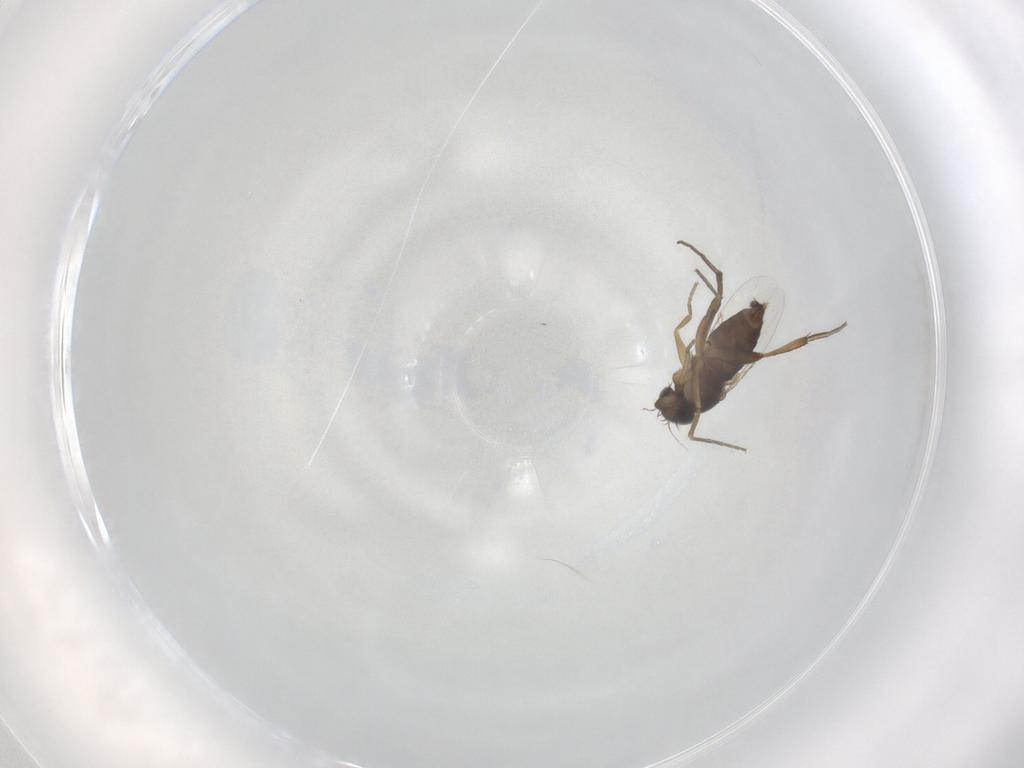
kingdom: Animalia
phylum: Arthropoda
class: Insecta
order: Diptera
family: Phoridae
